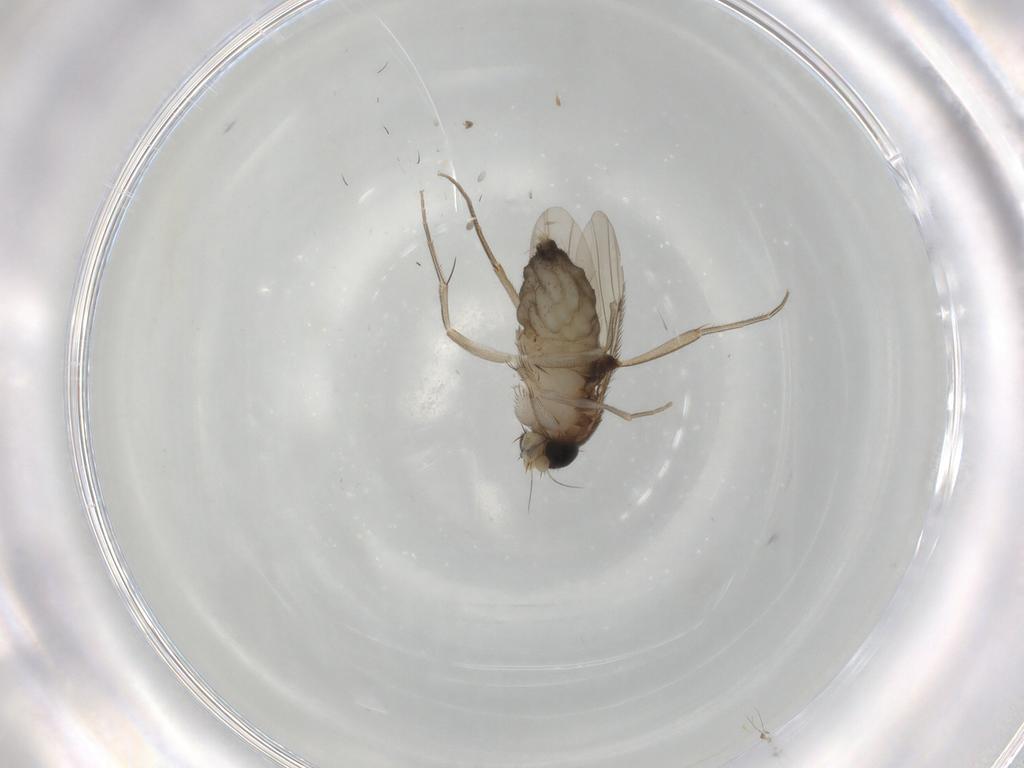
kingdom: Animalia
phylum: Arthropoda
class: Insecta
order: Diptera
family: Phoridae
